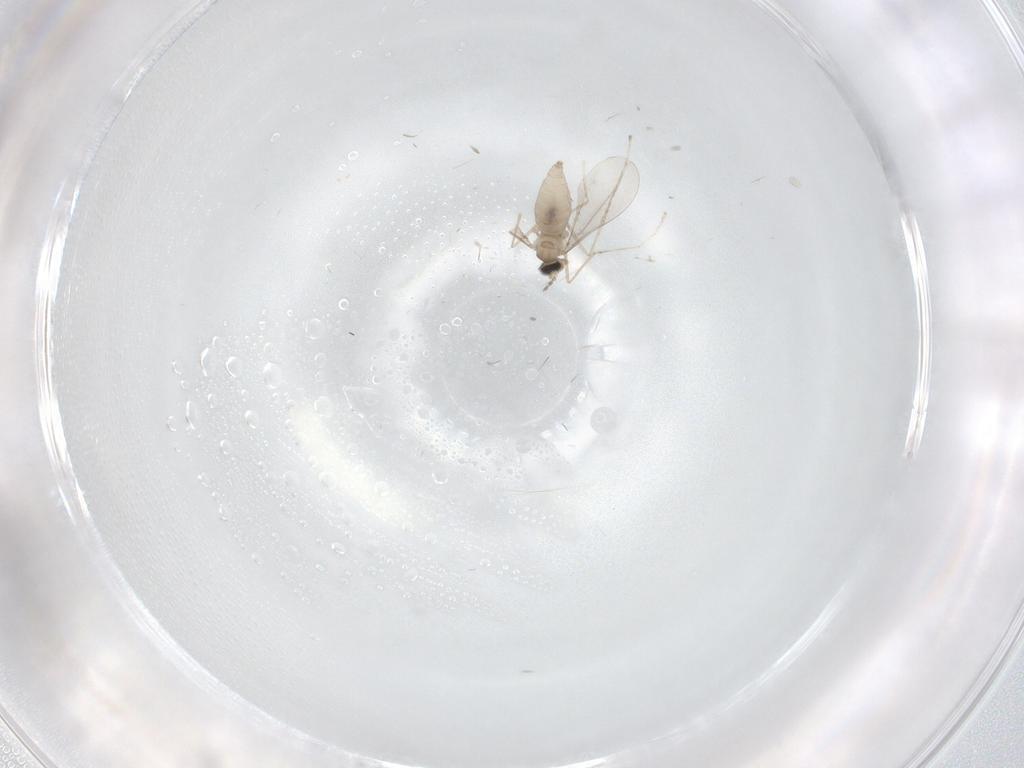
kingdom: Animalia
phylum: Arthropoda
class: Insecta
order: Diptera
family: Cecidomyiidae
